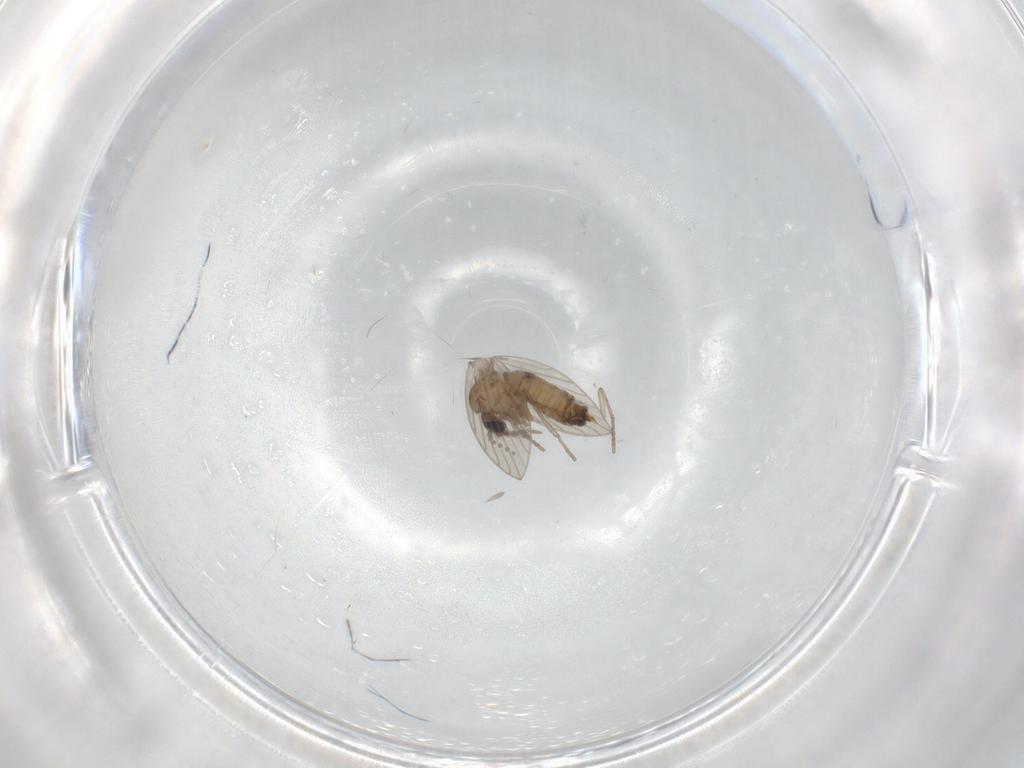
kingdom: Animalia
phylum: Arthropoda
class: Insecta
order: Diptera
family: Psychodidae
